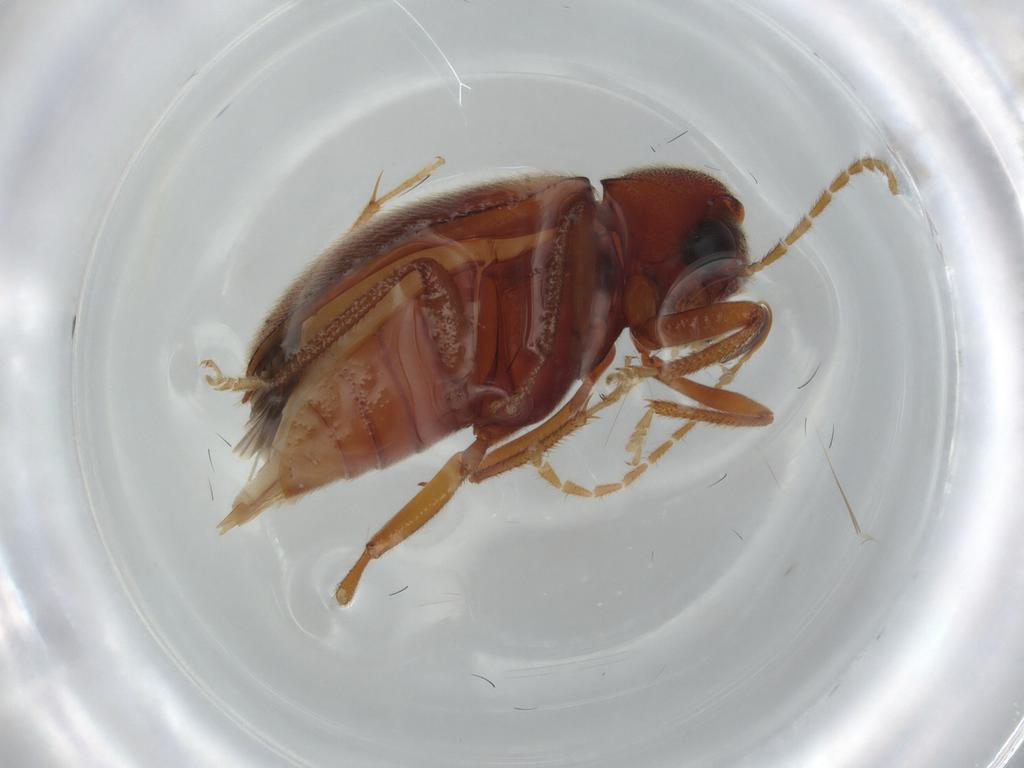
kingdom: Animalia
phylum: Arthropoda
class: Insecta
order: Coleoptera
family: Ptilodactylidae
